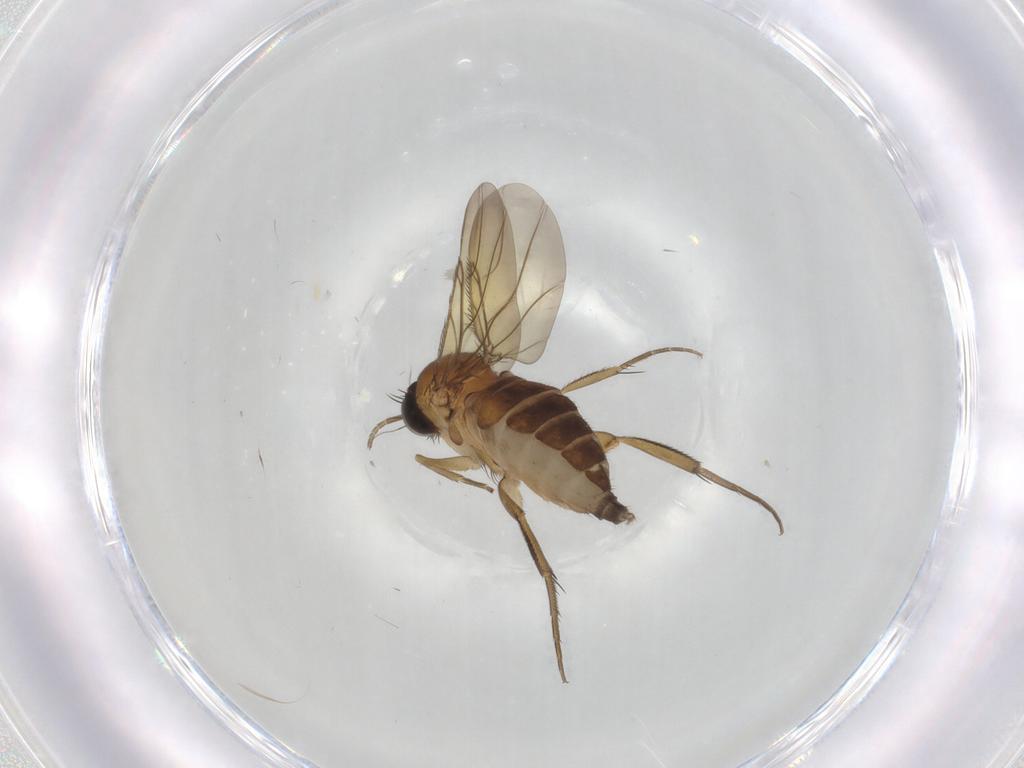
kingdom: Animalia
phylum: Arthropoda
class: Insecta
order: Diptera
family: Phoridae
